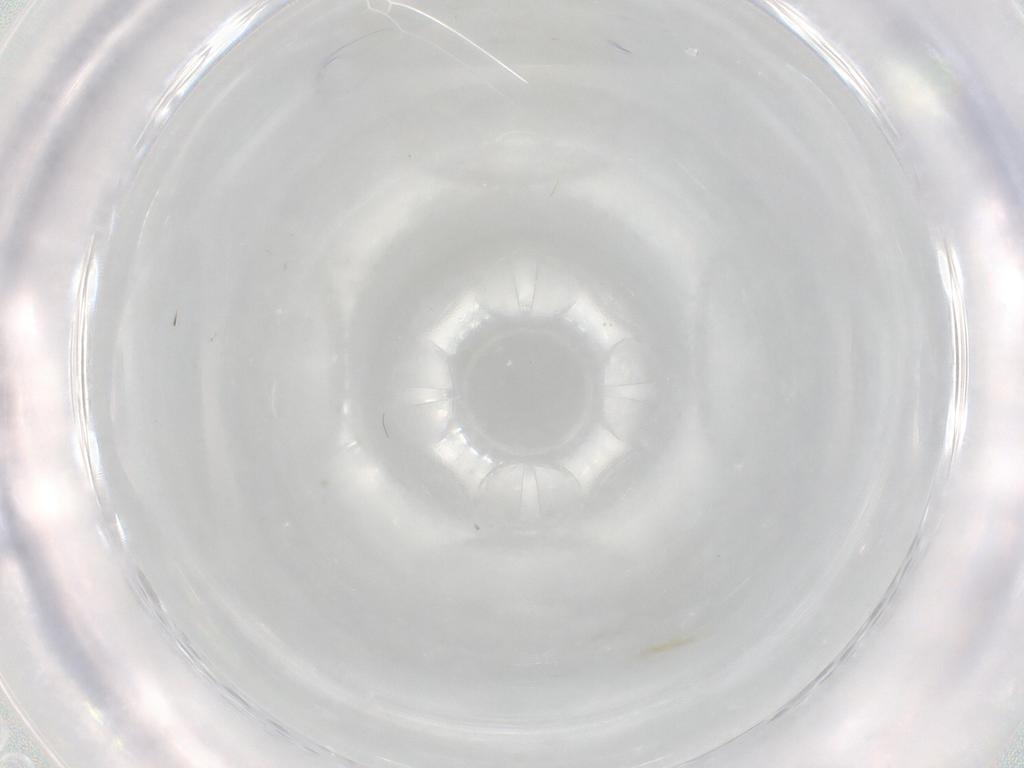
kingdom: Animalia
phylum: Arthropoda
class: Insecta
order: Diptera
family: Cecidomyiidae
